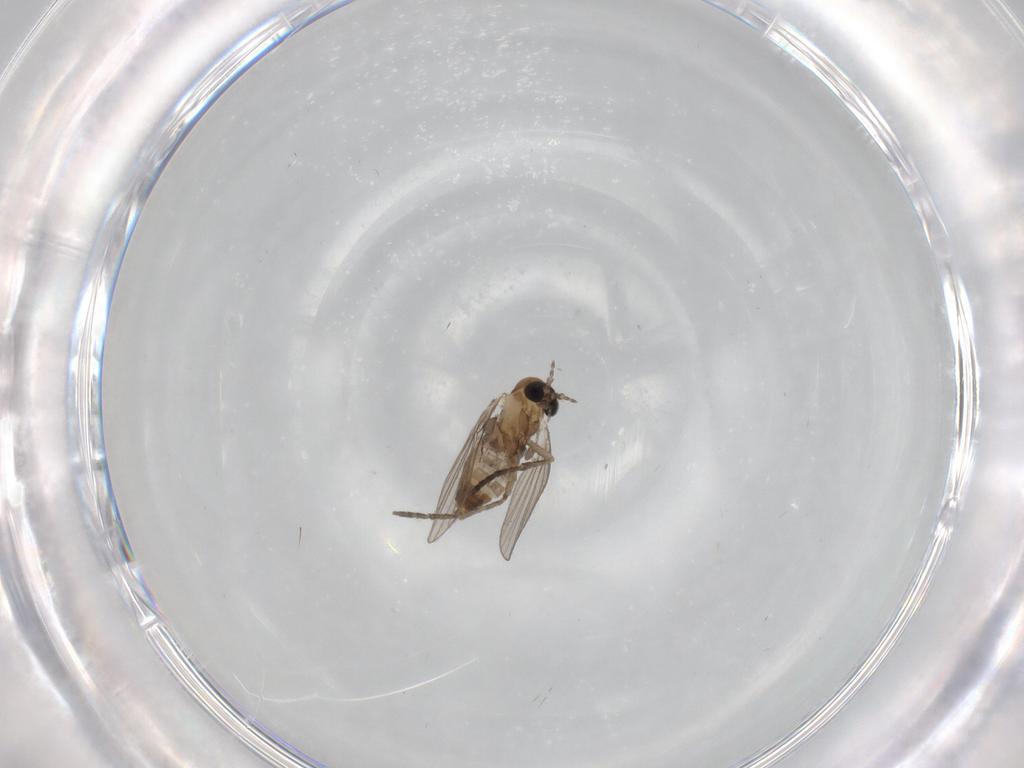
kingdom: Animalia
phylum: Arthropoda
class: Insecta
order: Diptera
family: Psychodidae
